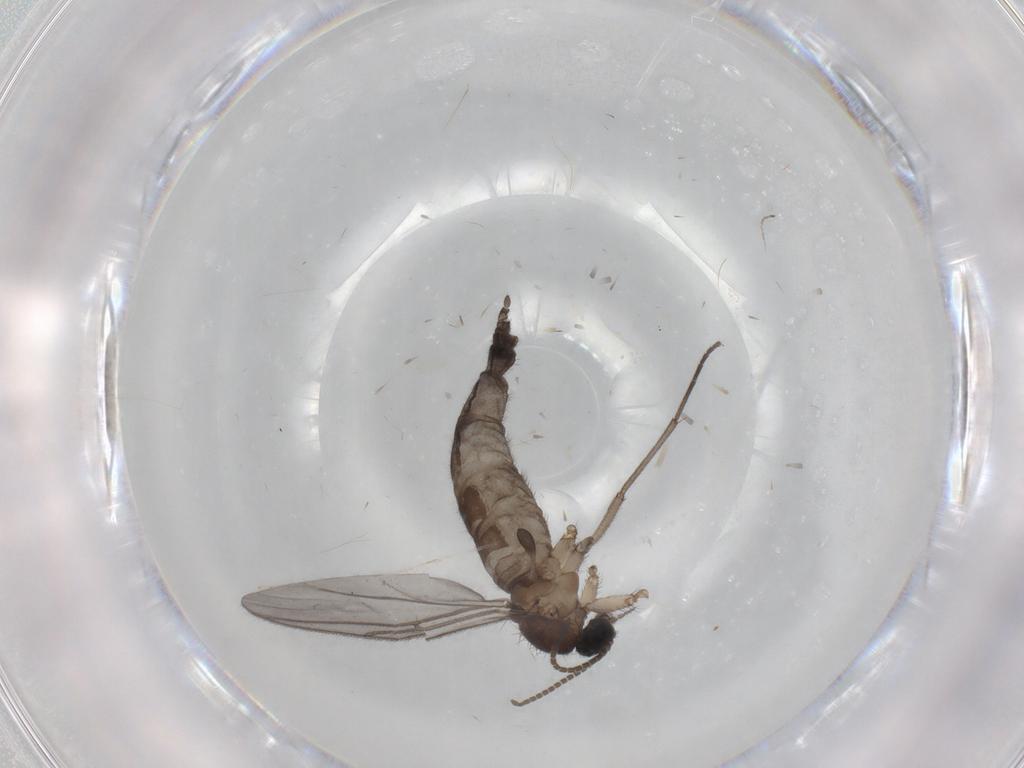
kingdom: Animalia
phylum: Arthropoda
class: Insecta
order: Diptera
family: Sciaridae
